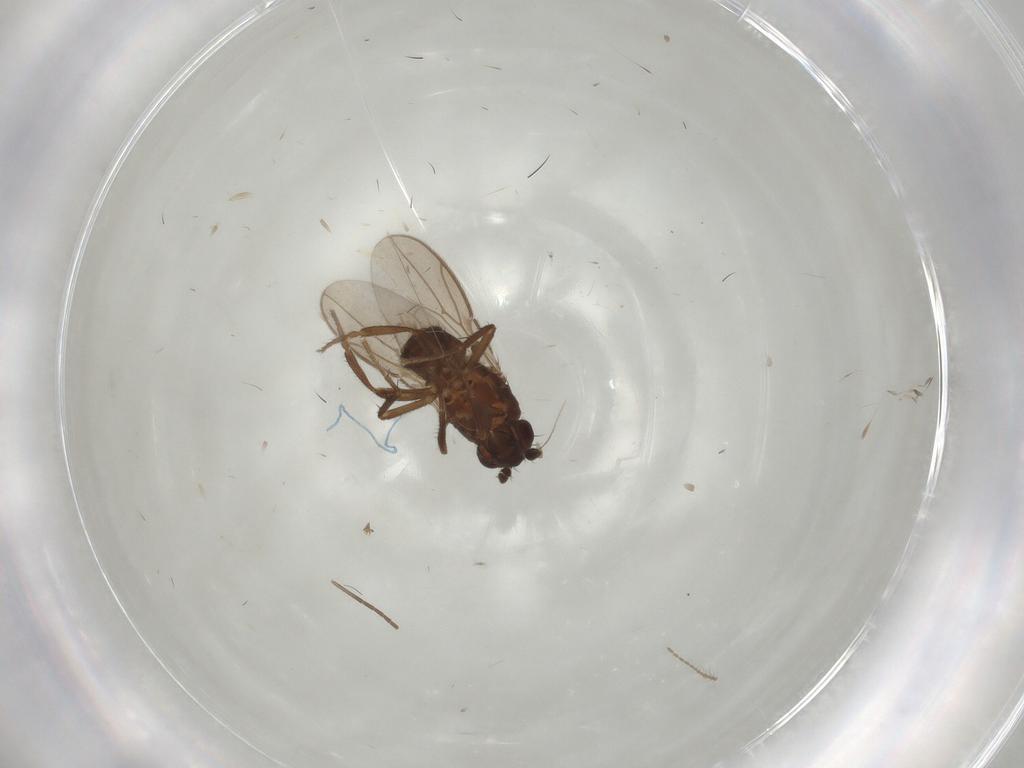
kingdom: Animalia
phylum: Arthropoda
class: Insecta
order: Diptera
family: Sphaeroceridae
